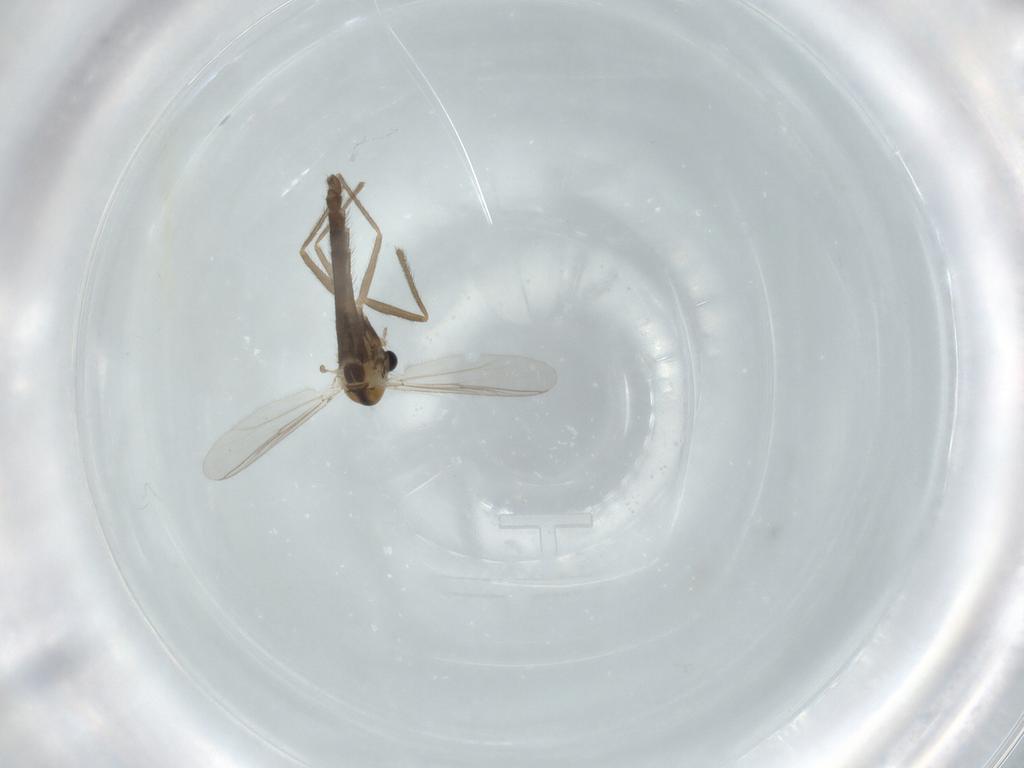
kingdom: Animalia
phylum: Arthropoda
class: Insecta
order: Diptera
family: Chironomidae
